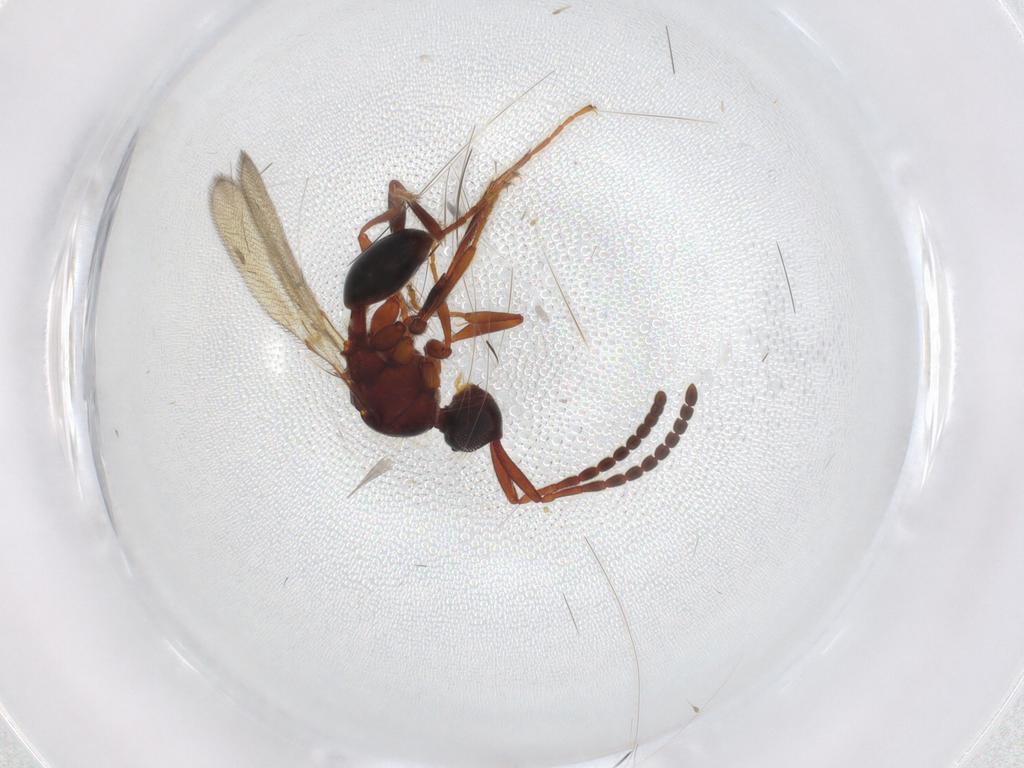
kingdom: Animalia
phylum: Arthropoda
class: Insecta
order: Hymenoptera
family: Diapriidae
